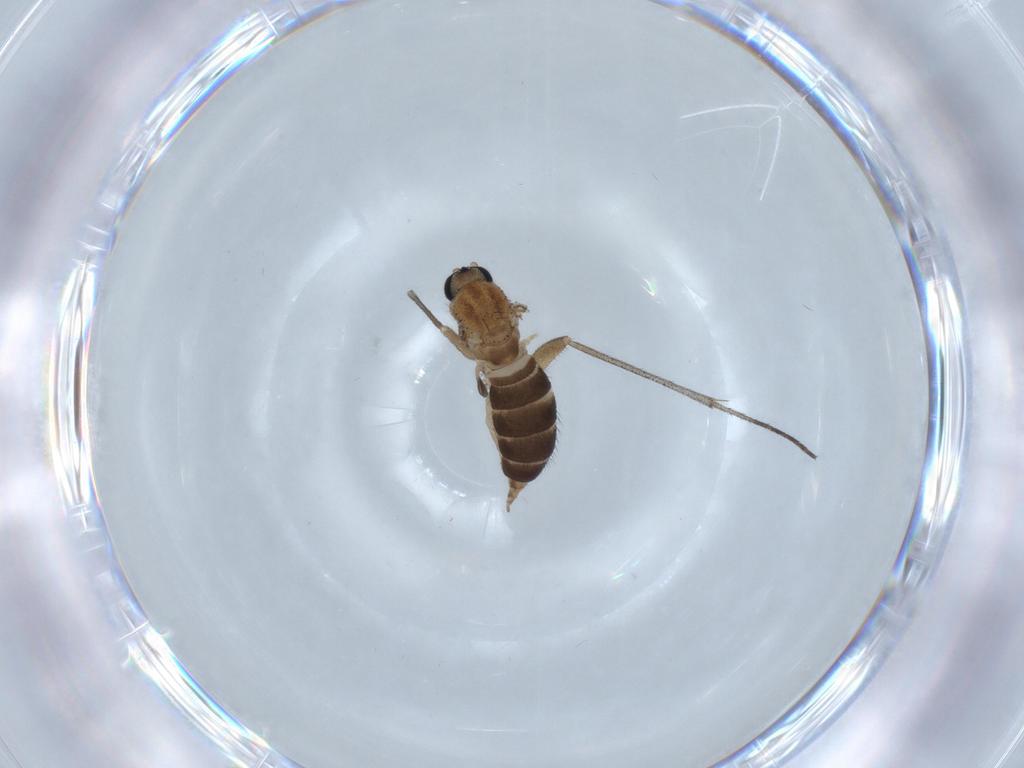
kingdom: Animalia
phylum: Arthropoda
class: Insecta
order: Diptera
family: Sciaridae
